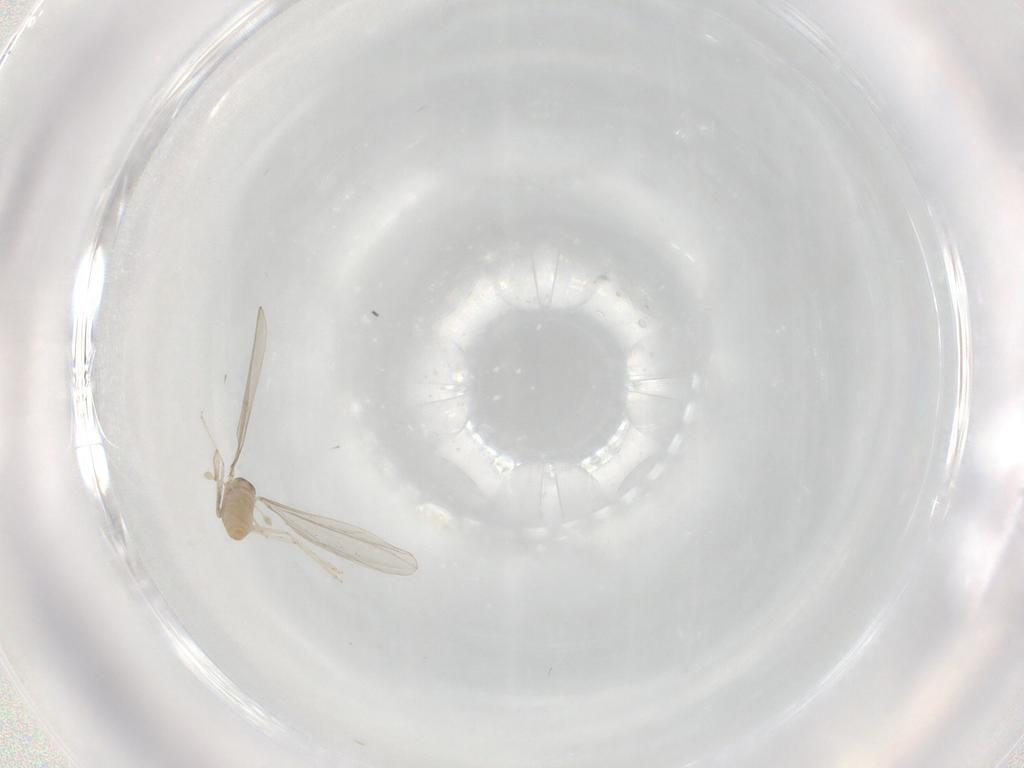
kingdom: Animalia
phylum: Arthropoda
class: Insecta
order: Diptera
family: Cecidomyiidae
